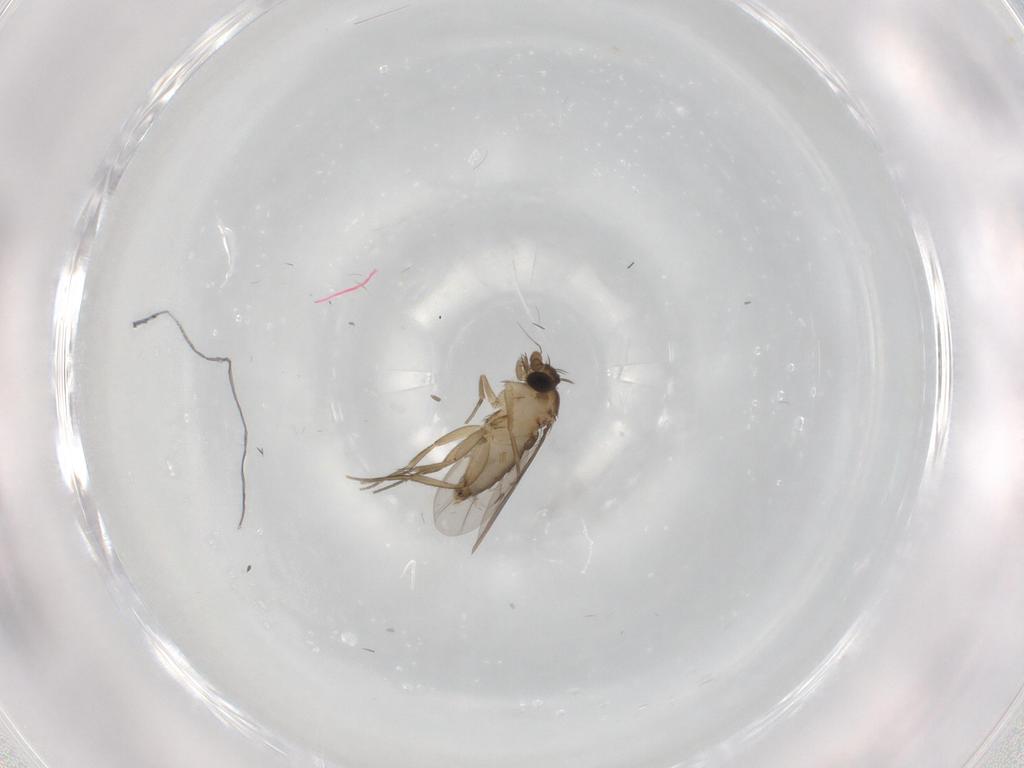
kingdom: Animalia
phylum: Arthropoda
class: Insecta
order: Diptera
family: Phoridae
